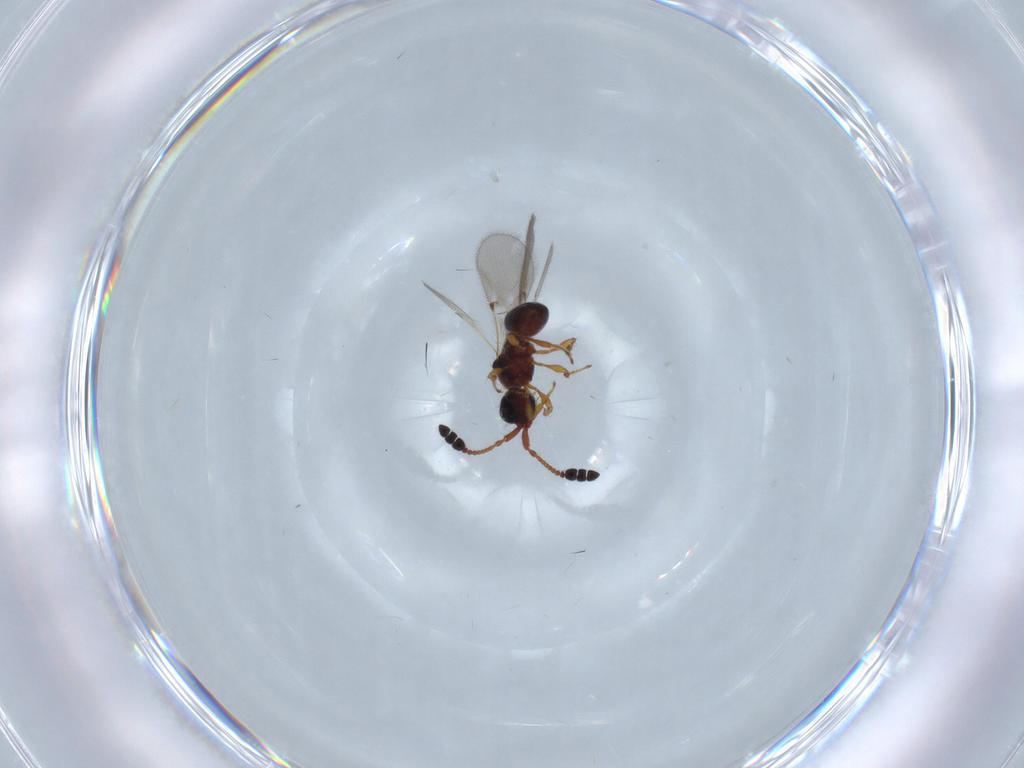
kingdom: Animalia
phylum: Arthropoda
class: Insecta
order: Hymenoptera
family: Diapriidae
